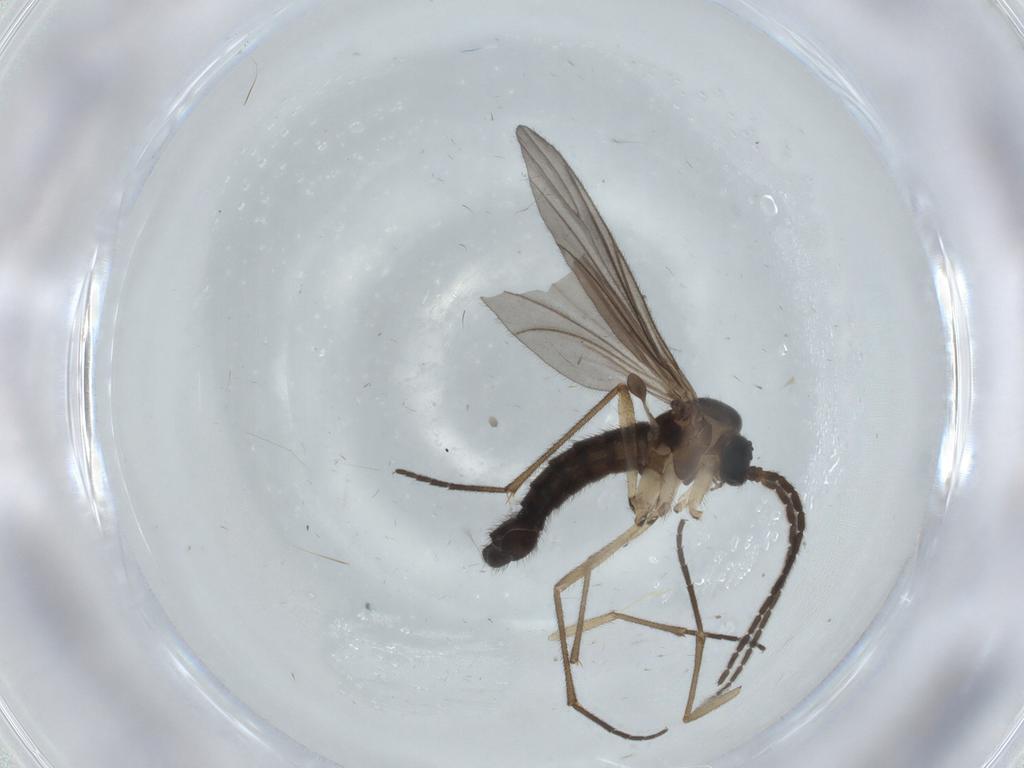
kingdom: Animalia
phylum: Arthropoda
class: Insecta
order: Diptera
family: Sciaridae
